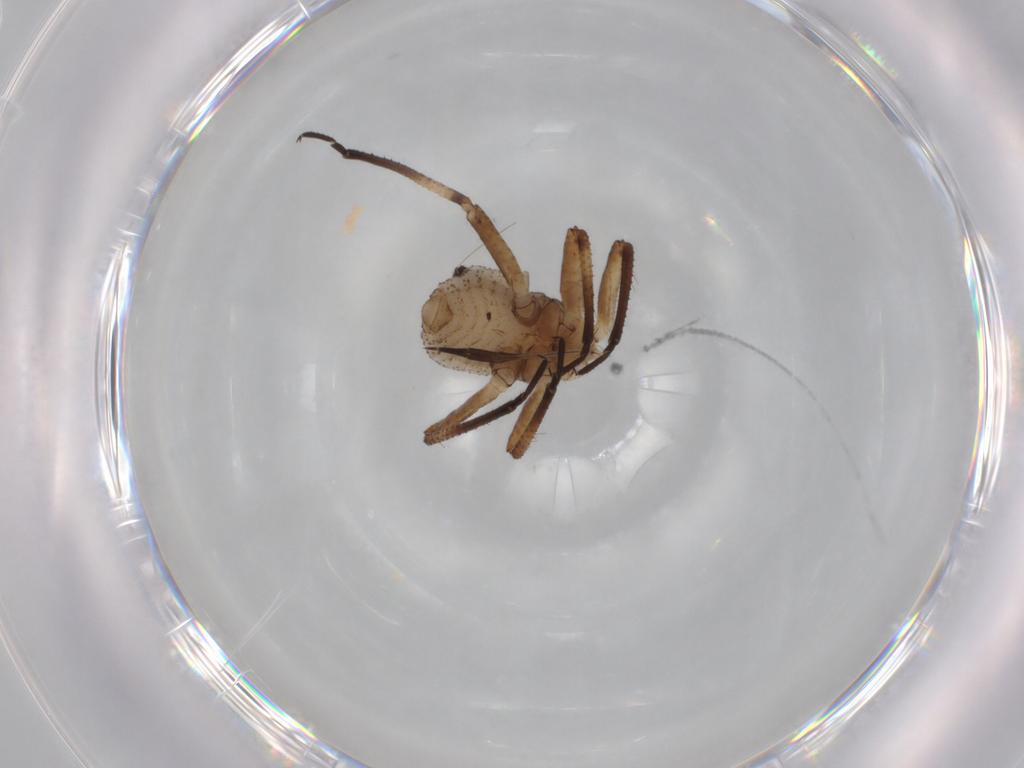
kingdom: Animalia
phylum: Arthropoda
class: Insecta
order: Hemiptera
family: Aphididae
